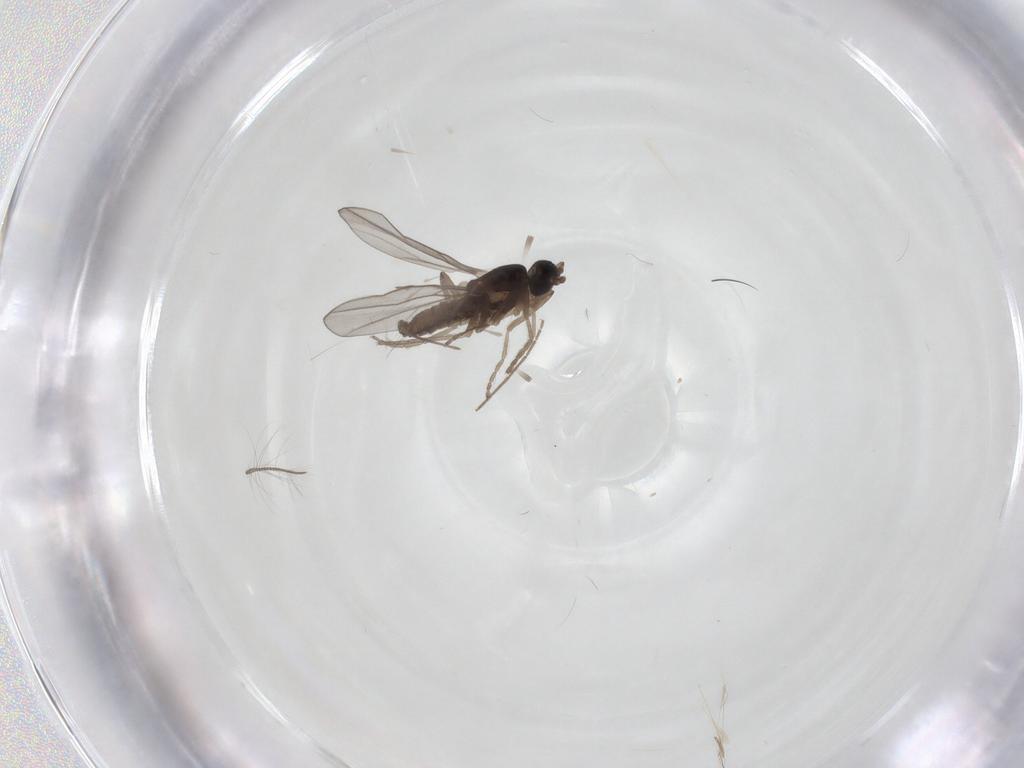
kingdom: Animalia
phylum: Arthropoda
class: Insecta
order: Diptera
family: Cecidomyiidae
